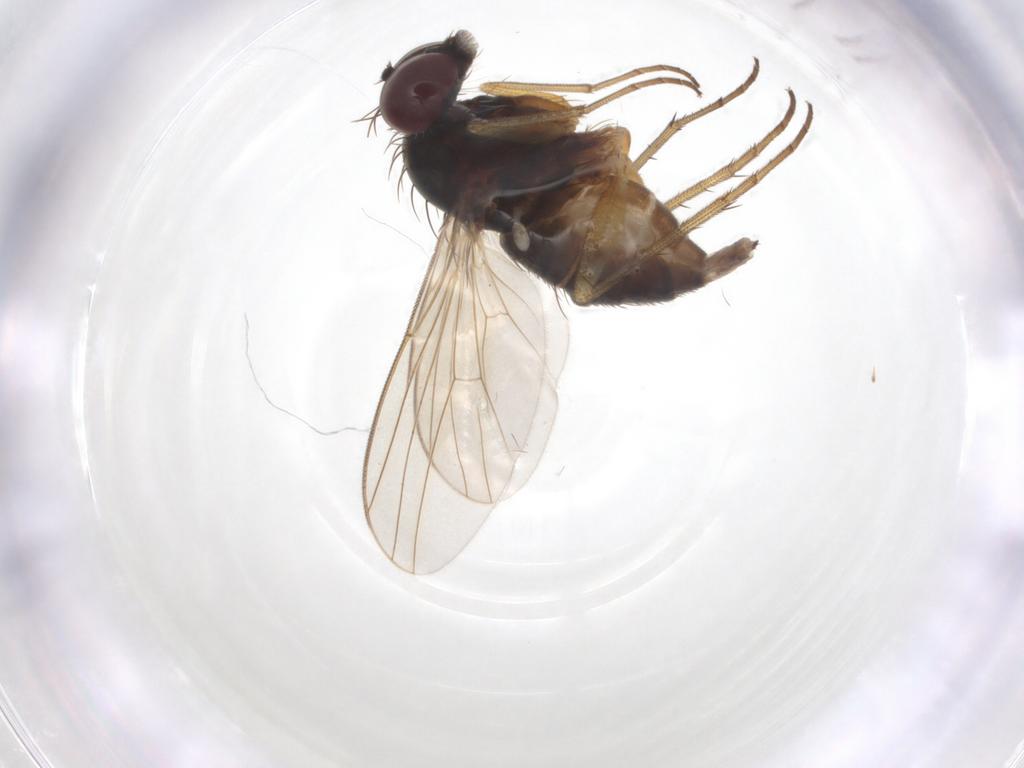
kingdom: Animalia
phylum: Arthropoda
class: Insecta
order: Diptera
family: Dolichopodidae
